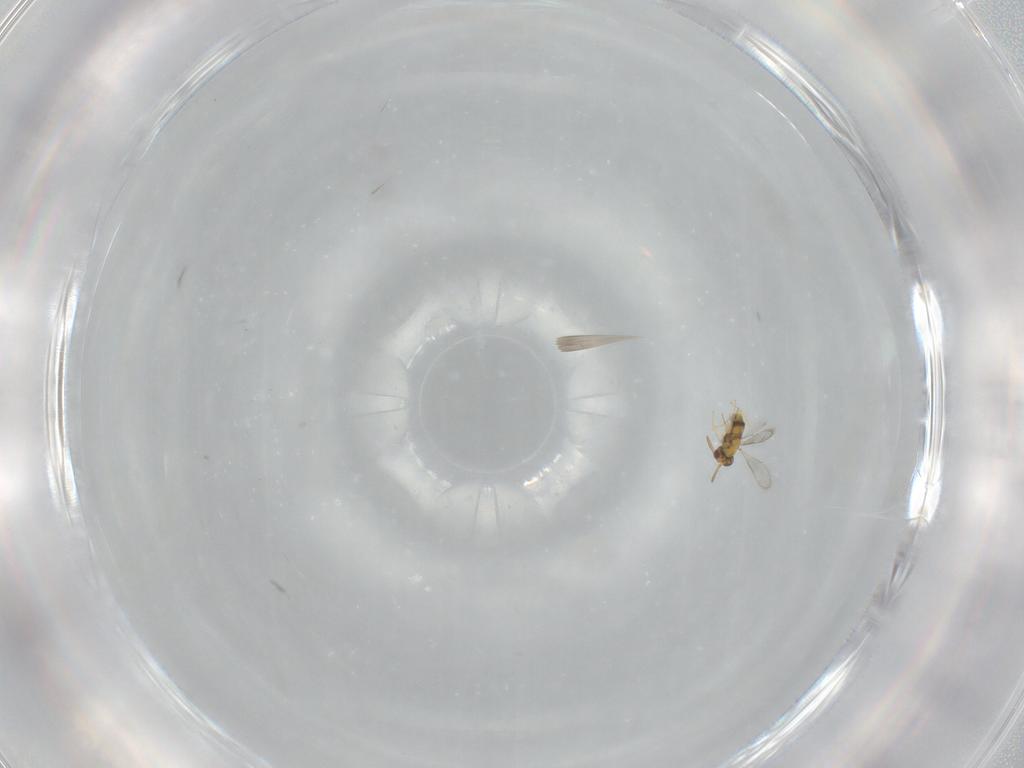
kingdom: Animalia
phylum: Arthropoda
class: Insecta
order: Hymenoptera
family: Aphelinidae
